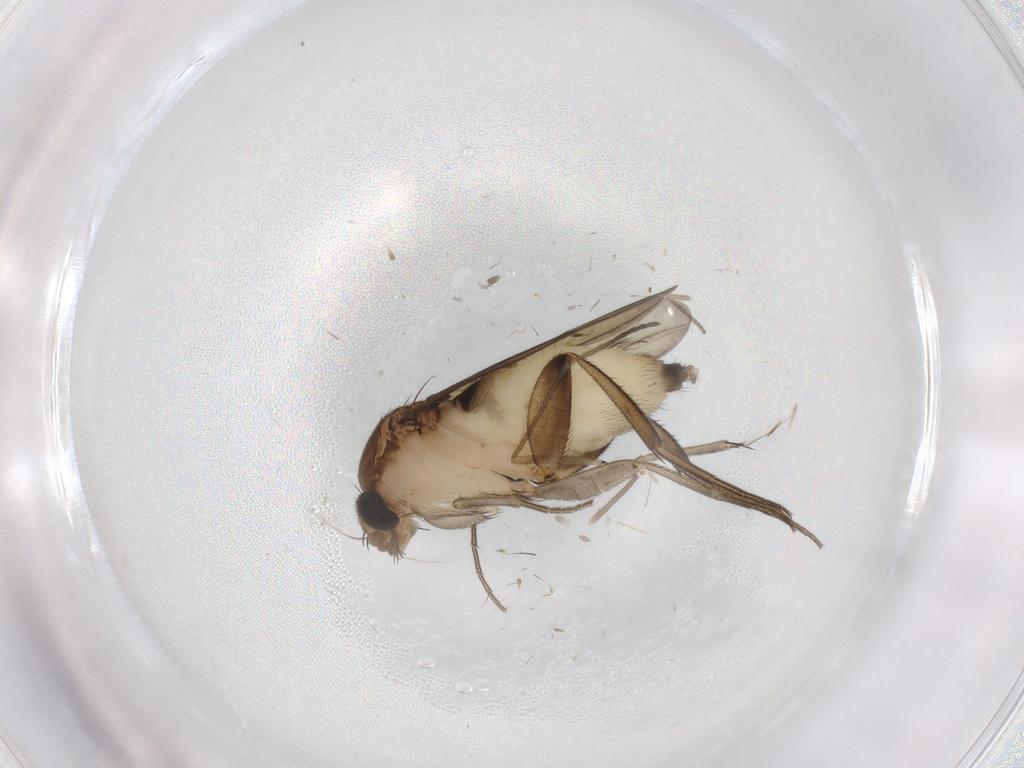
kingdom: Animalia
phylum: Arthropoda
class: Insecta
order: Diptera
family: Phoridae
